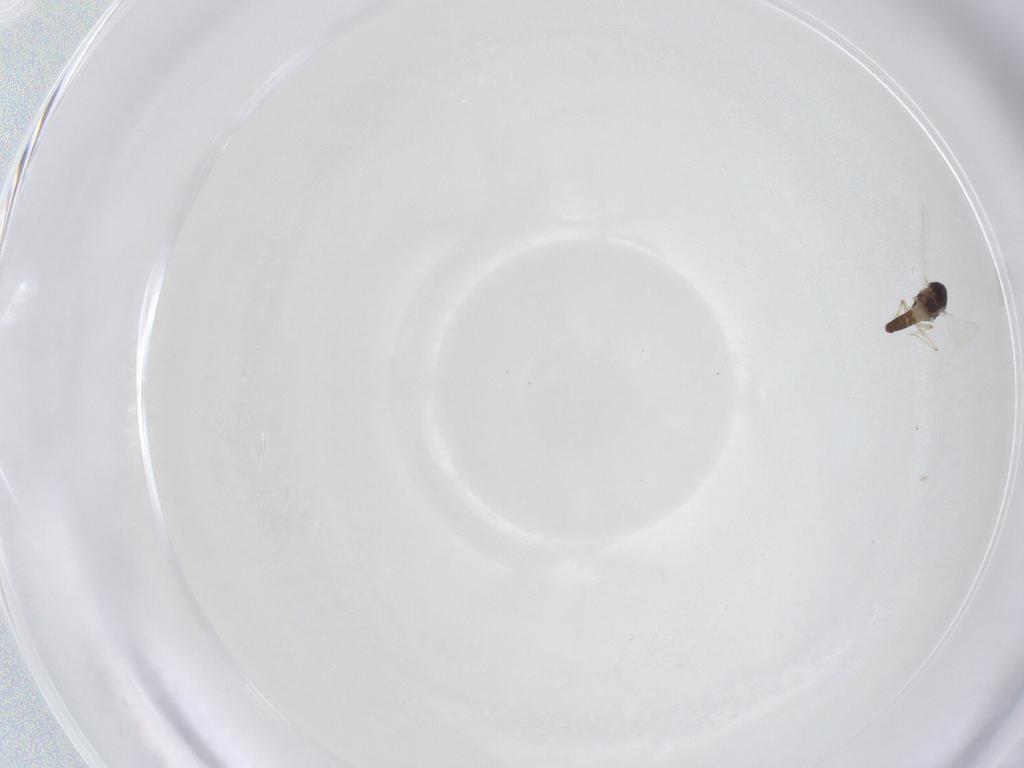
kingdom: Animalia
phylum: Arthropoda
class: Insecta
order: Diptera
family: Chironomidae
